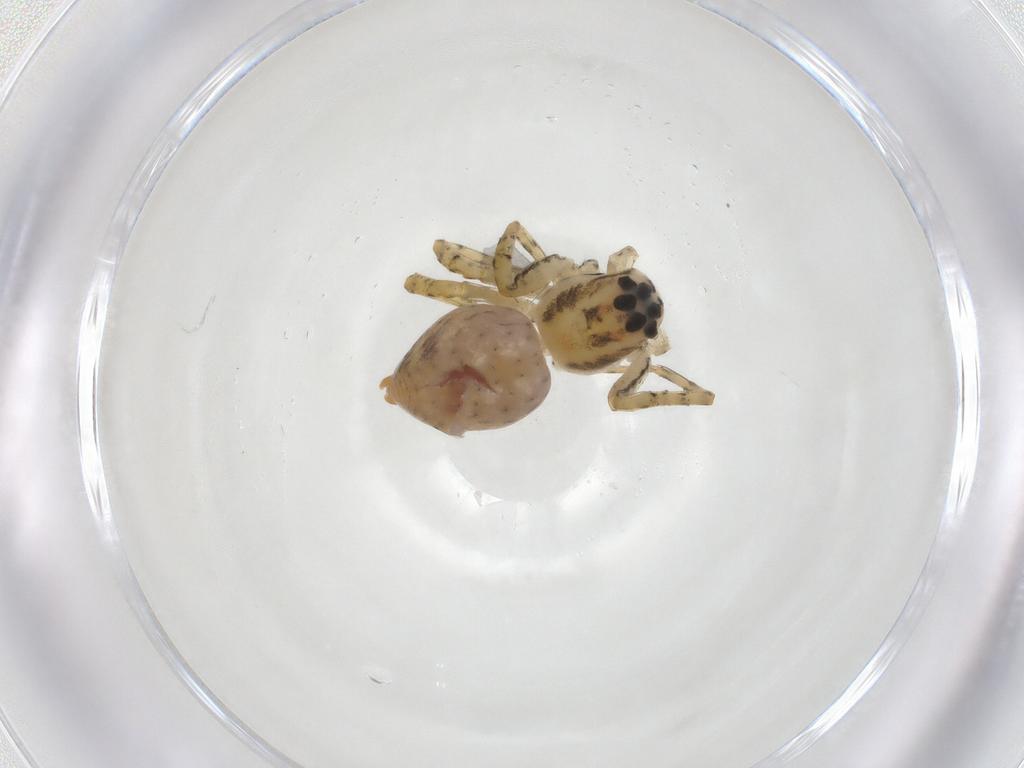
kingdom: Animalia
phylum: Arthropoda
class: Arachnida
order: Araneae
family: Oxyopidae
